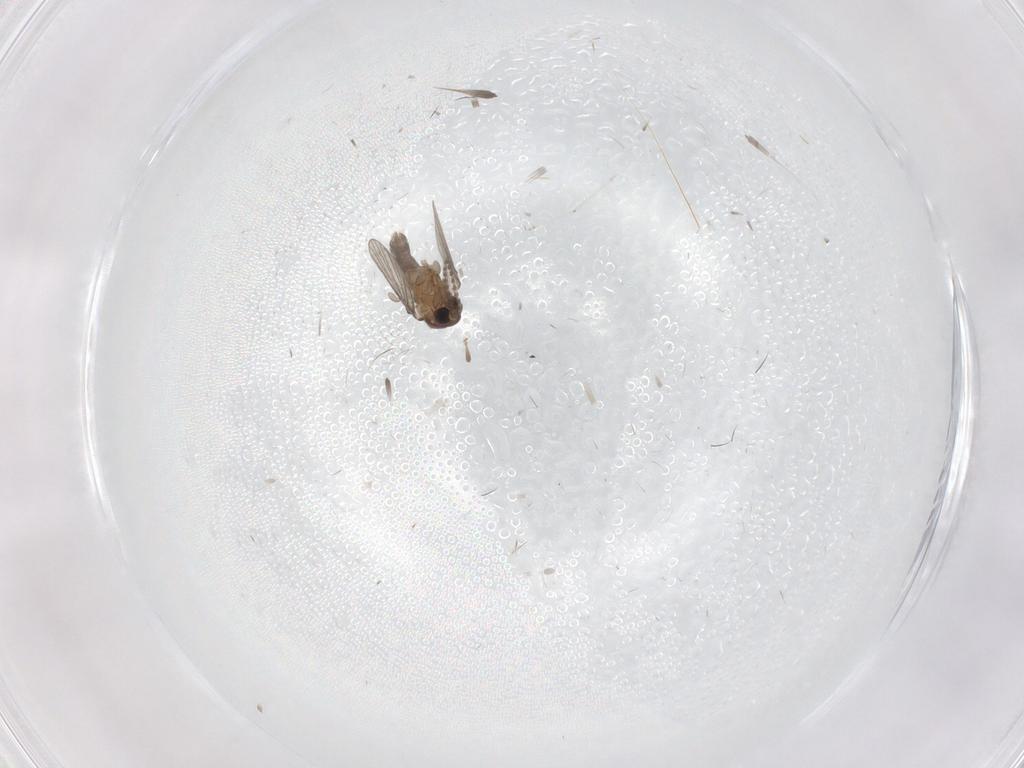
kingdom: Animalia
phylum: Arthropoda
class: Insecta
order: Diptera
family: Cecidomyiidae
